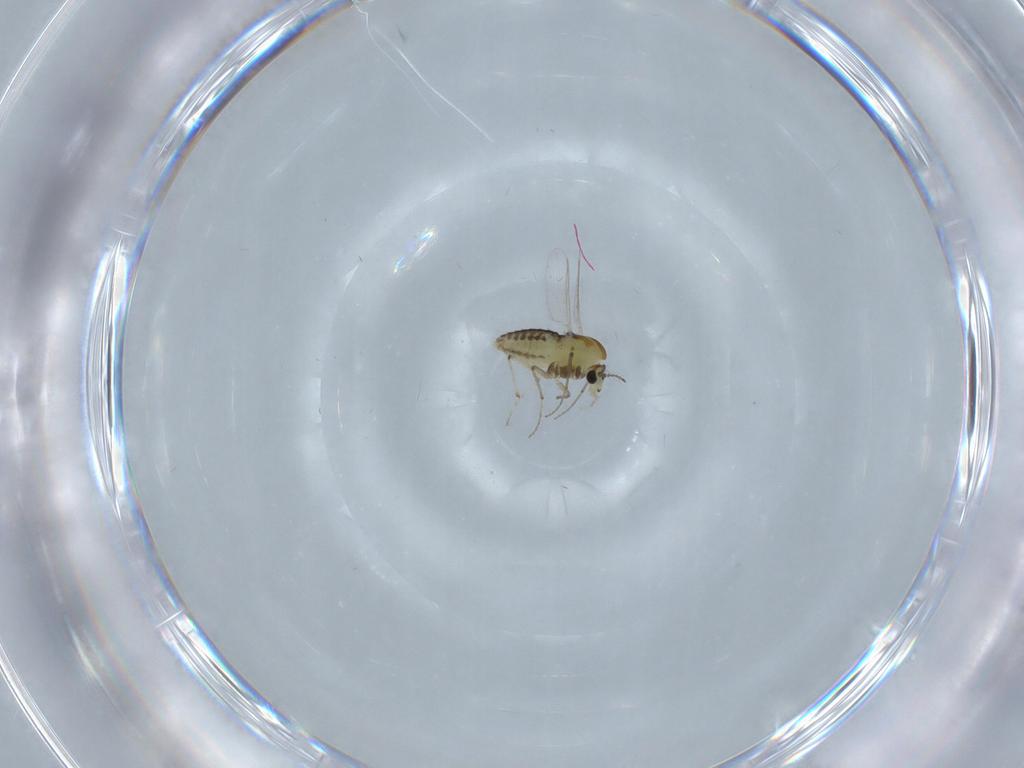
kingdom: Animalia
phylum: Arthropoda
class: Insecta
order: Diptera
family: Chironomidae
